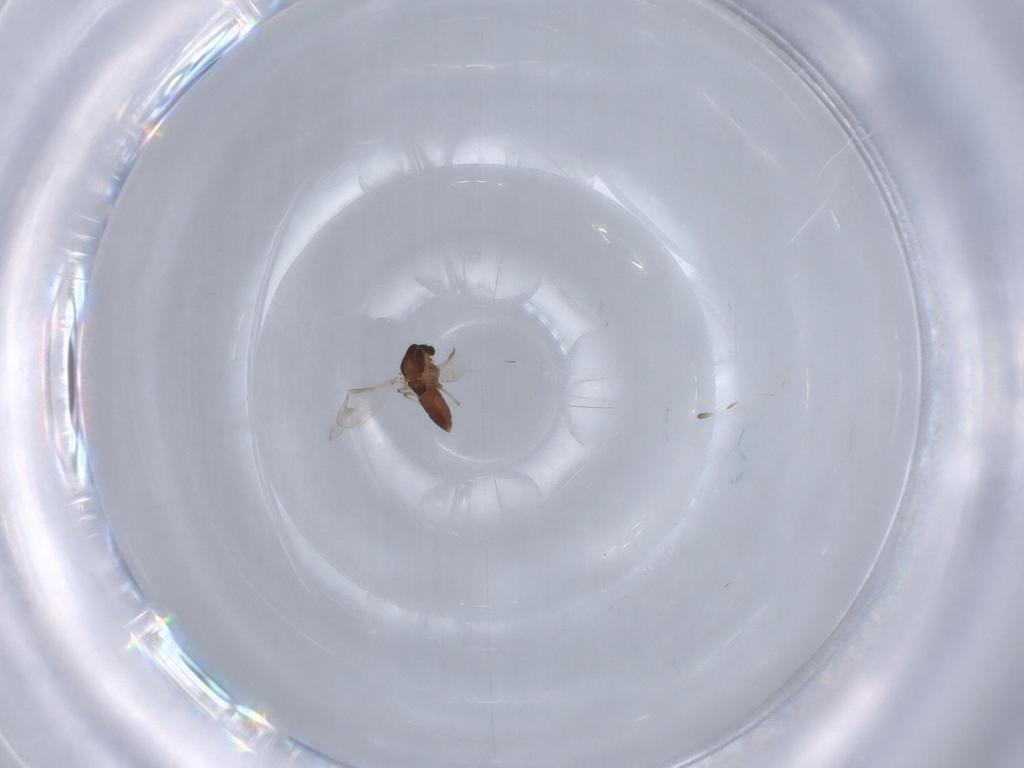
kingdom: Animalia
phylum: Arthropoda
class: Insecta
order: Diptera
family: Chironomidae
